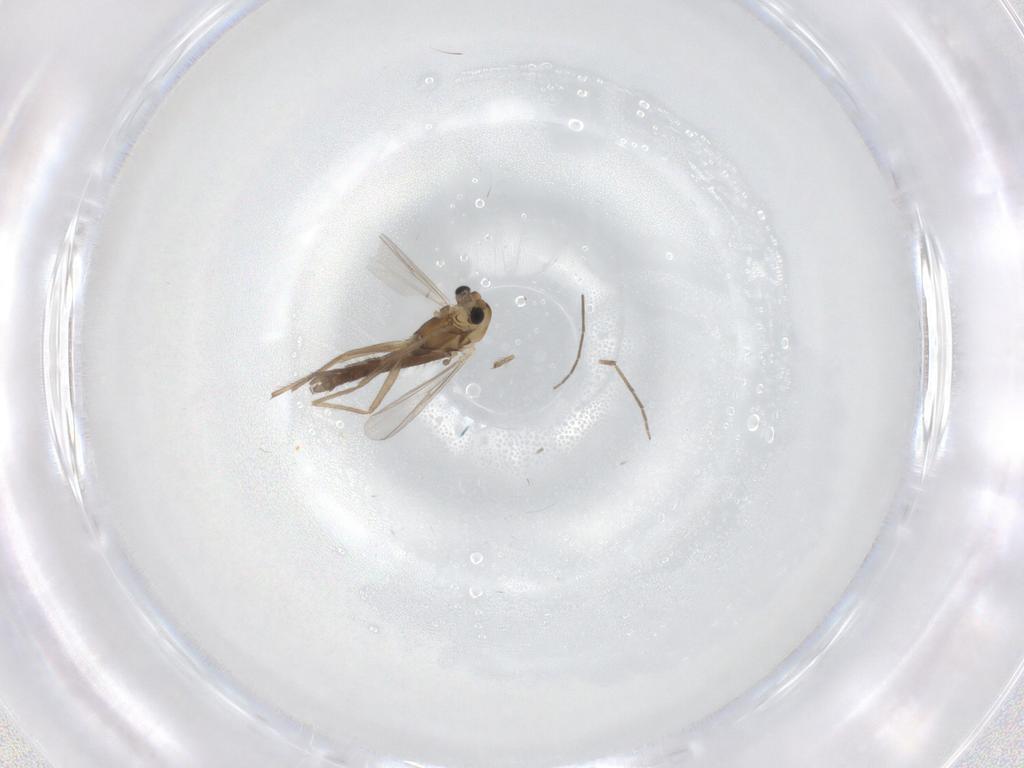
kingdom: Animalia
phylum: Arthropoda
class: Insecta
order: Diptera
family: Chironomidae
